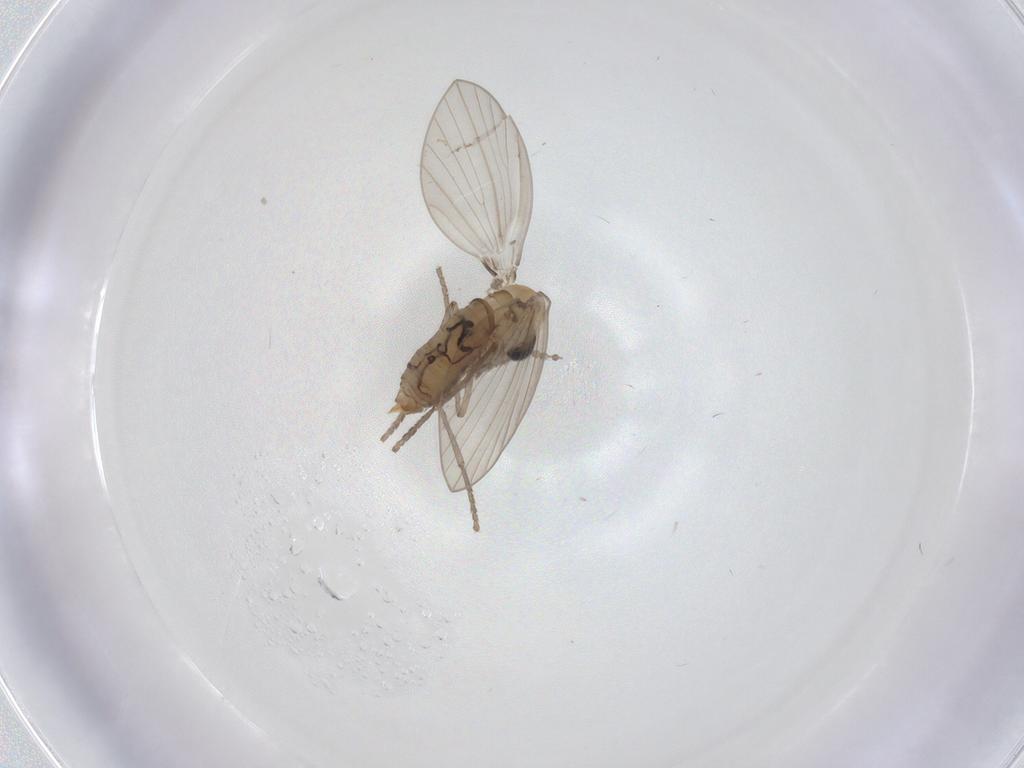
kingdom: Animalia
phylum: Arthropoda
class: Insecta
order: Diptera
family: Psychodidae
